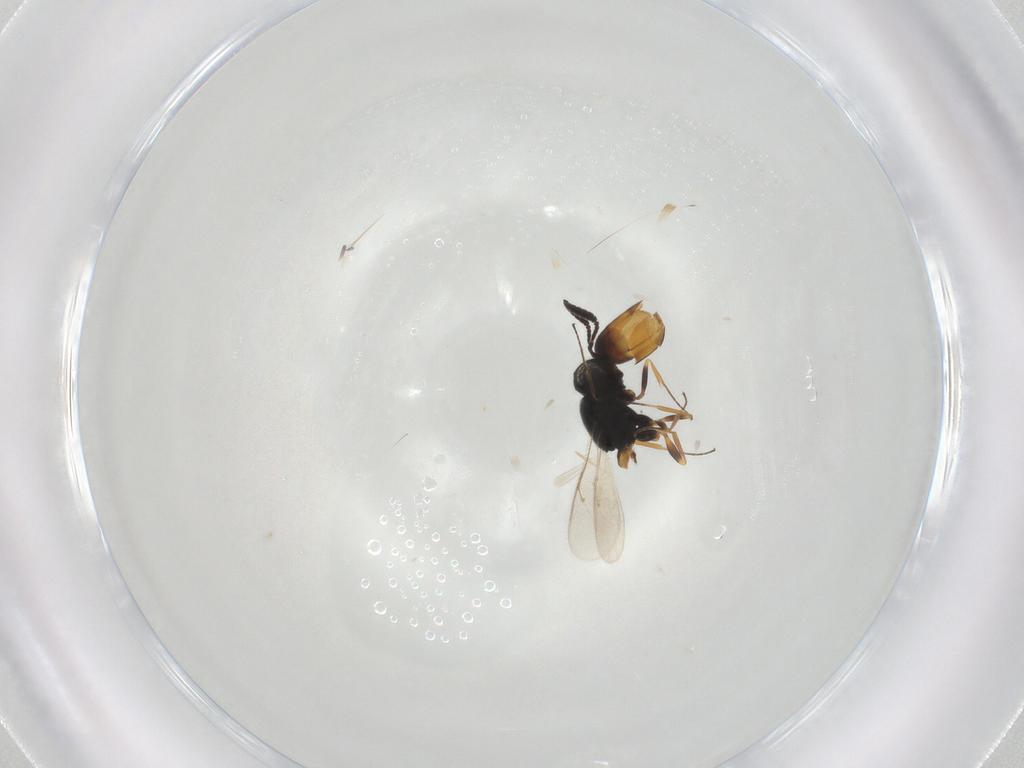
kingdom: Animalia
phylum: Arthropoda
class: Insecta
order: Hymenoptera
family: Scelionidae
